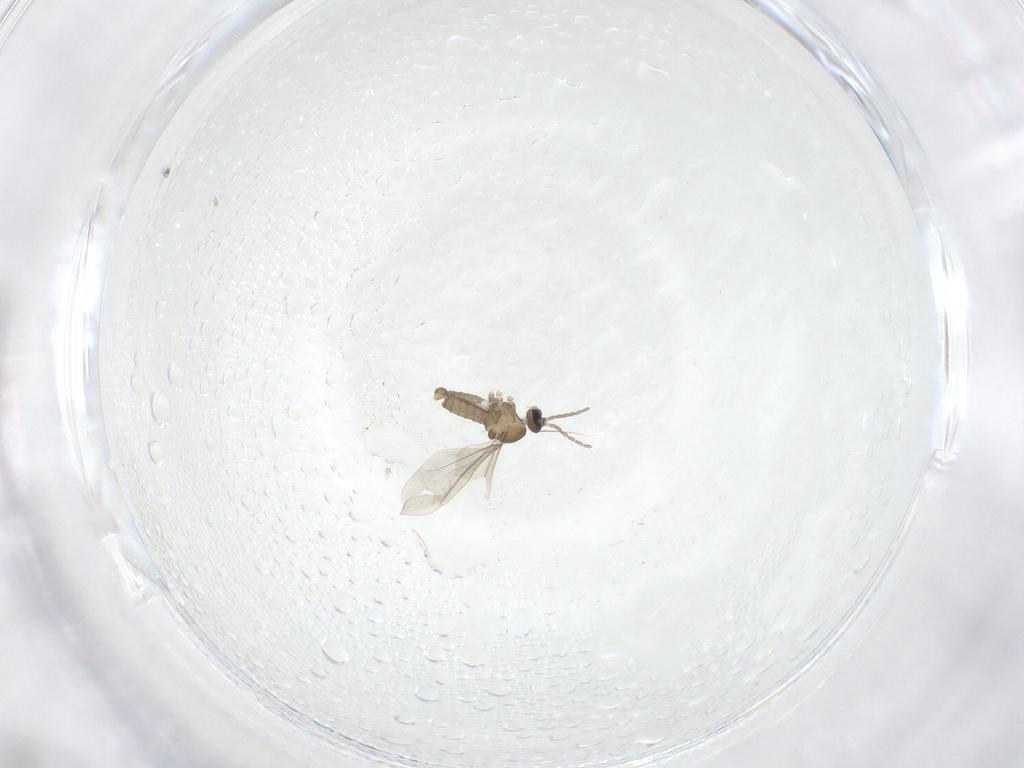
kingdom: Animalia
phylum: Arthropoda
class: Insecta
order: Diptera
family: Cecidomyiidae
